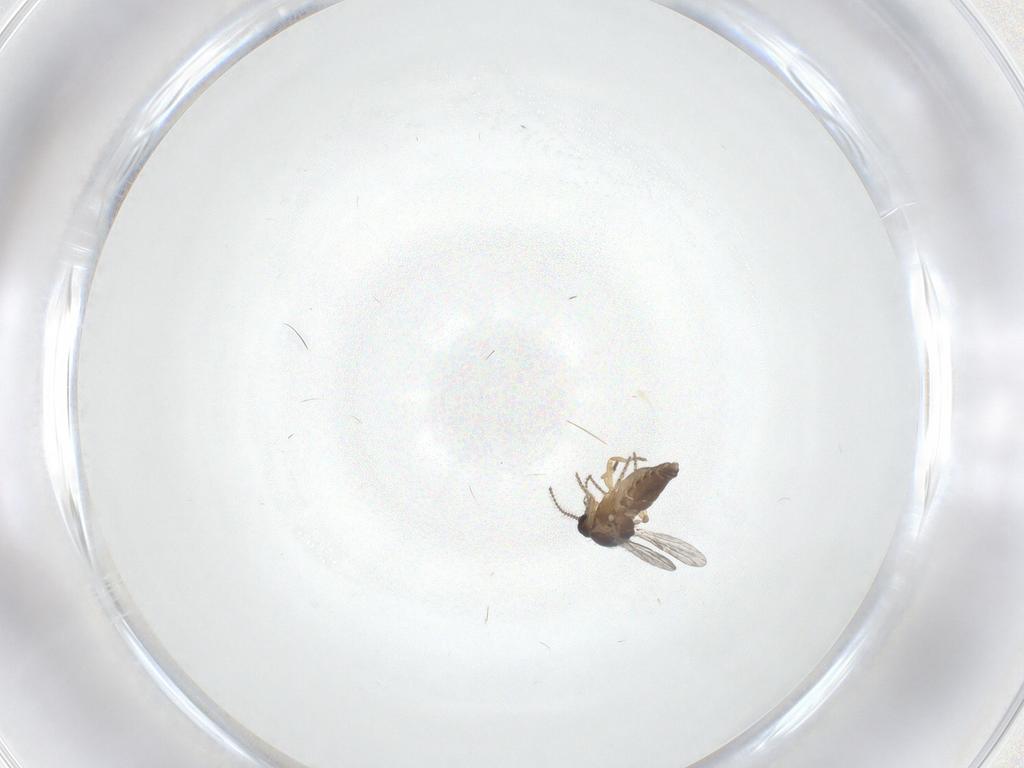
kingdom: Animalia
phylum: Arthropoda
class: Insecta
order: Diptera
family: Ceratopogonidae
